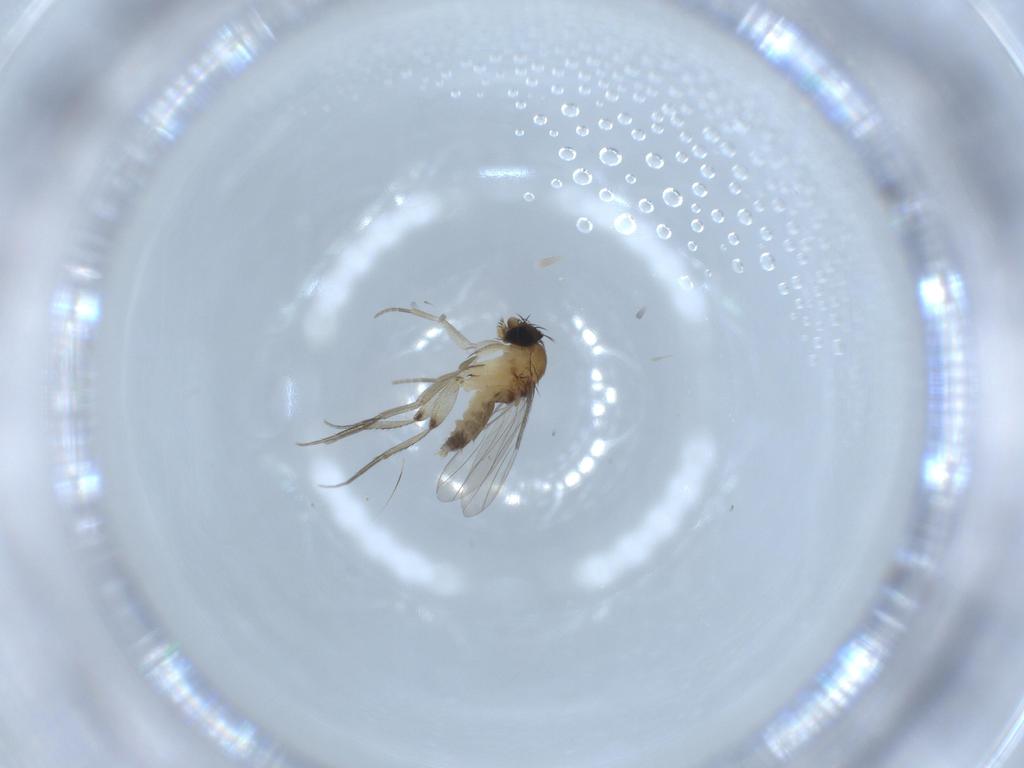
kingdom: Animalia
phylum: Arthropoda
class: Insecta
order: Diptera
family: Phoridae
